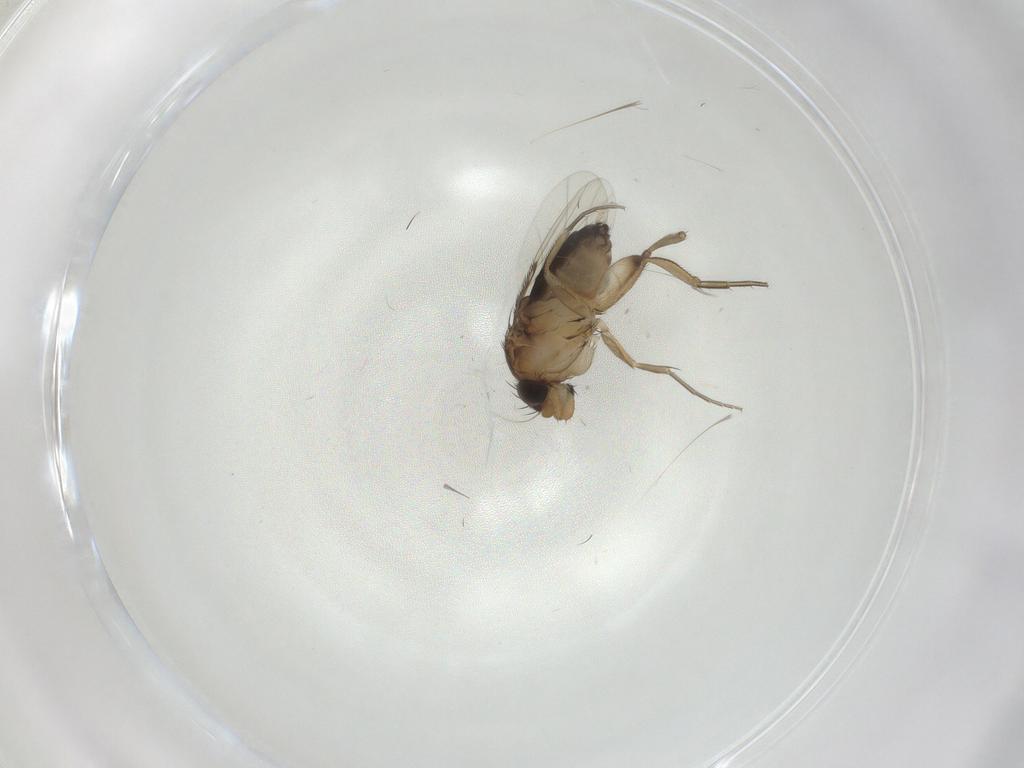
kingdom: Animalia
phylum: Arthropoda
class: Insecta
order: Diptera
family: Phoridae
